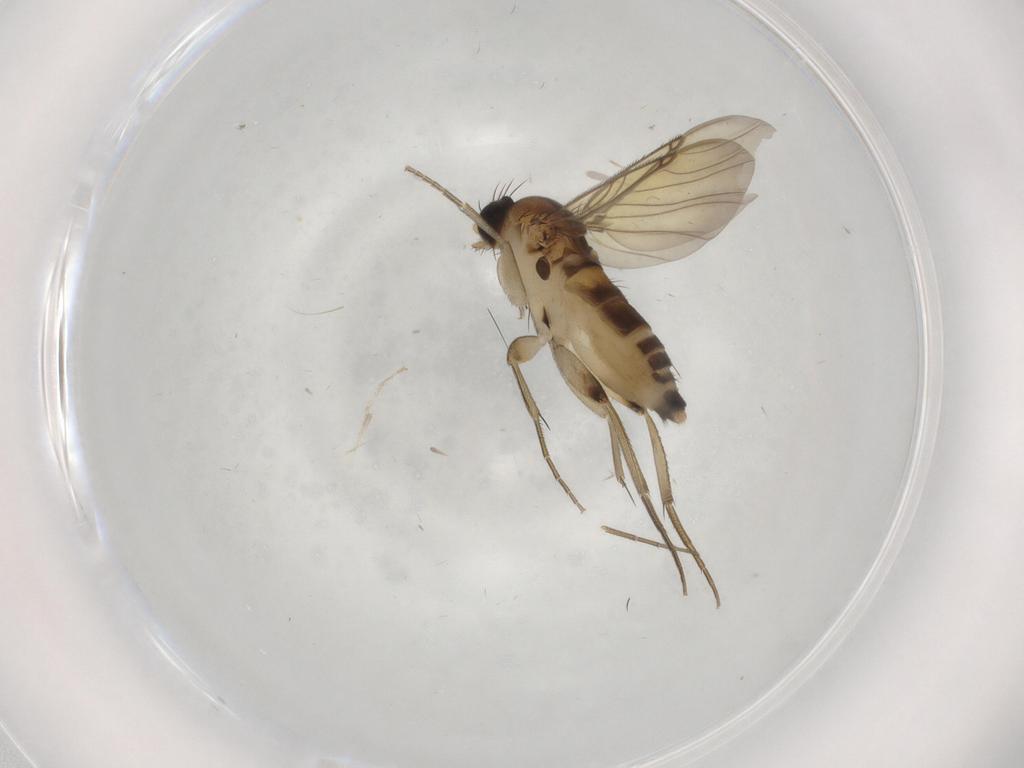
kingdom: Animalia
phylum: Arthropoda
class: Insecta
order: Diptera
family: Phoridae
